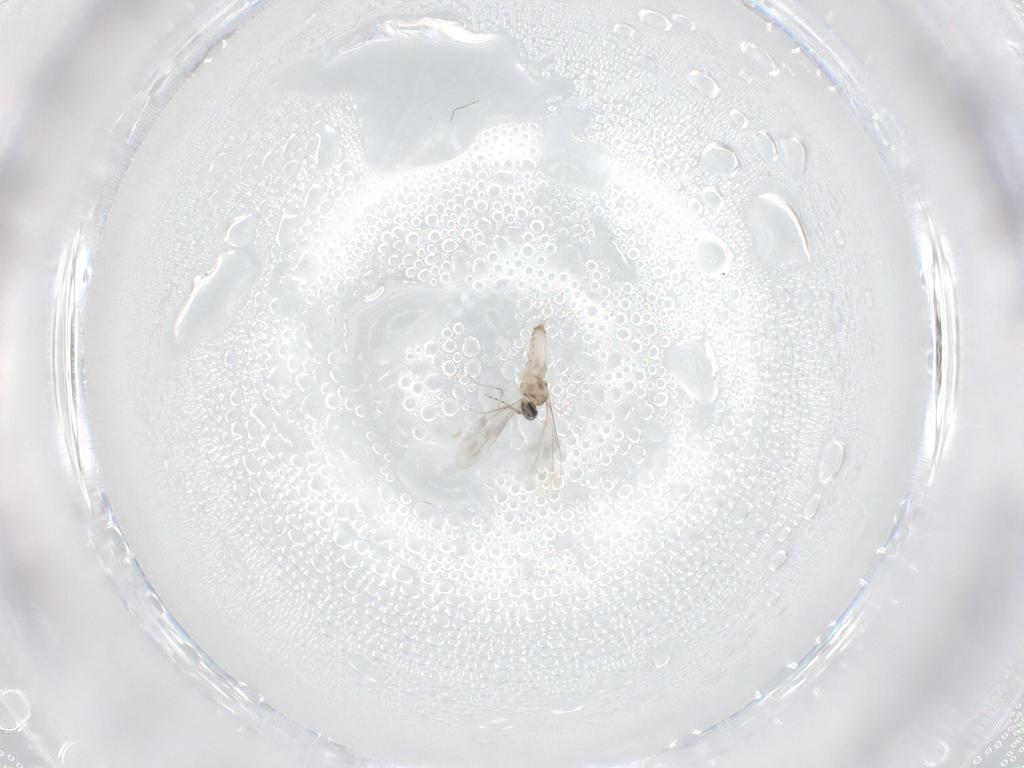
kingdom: Animalia
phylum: Arthropoda
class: Insecta
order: Diptera
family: Cecidomyiidae
